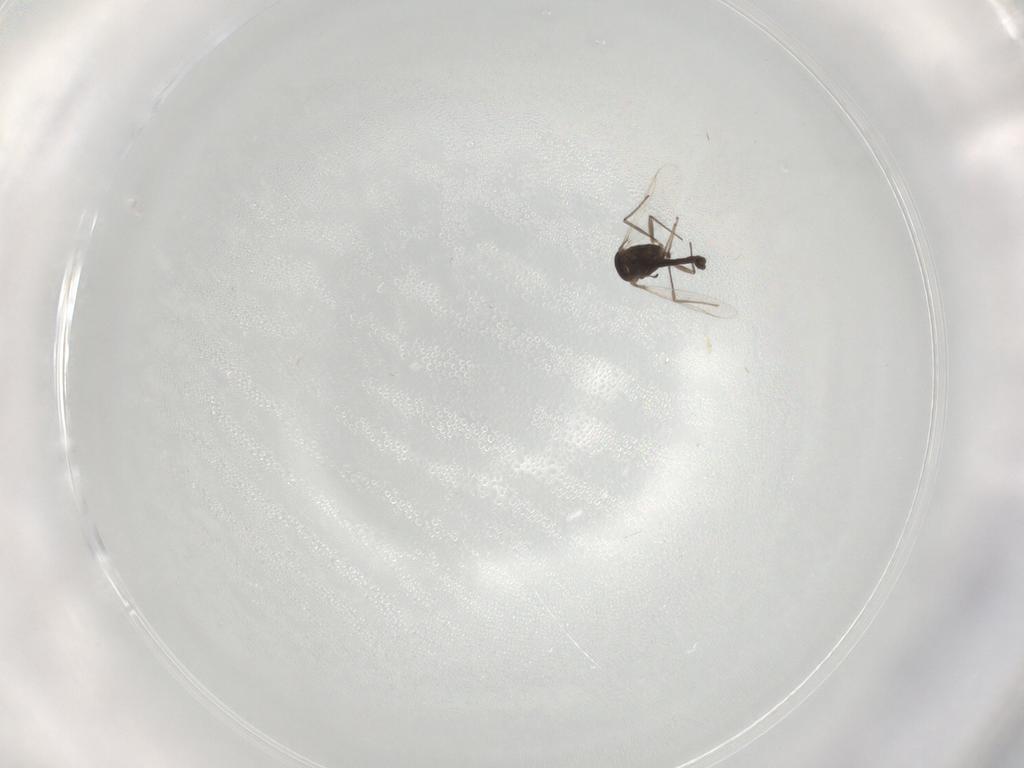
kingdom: Animalia
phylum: Arthropoda
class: Insecta
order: Diptera
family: Chironomidae
